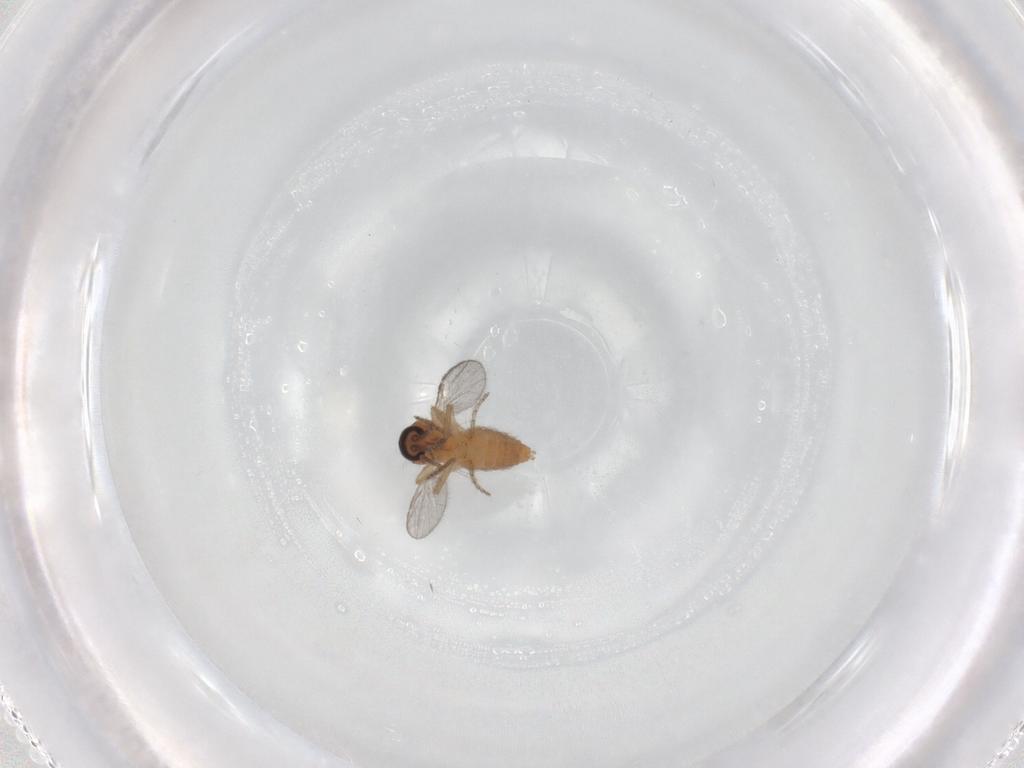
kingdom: Animalia
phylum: Arthropoda
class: Insecta
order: Diptera
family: Ceratopogonidae
